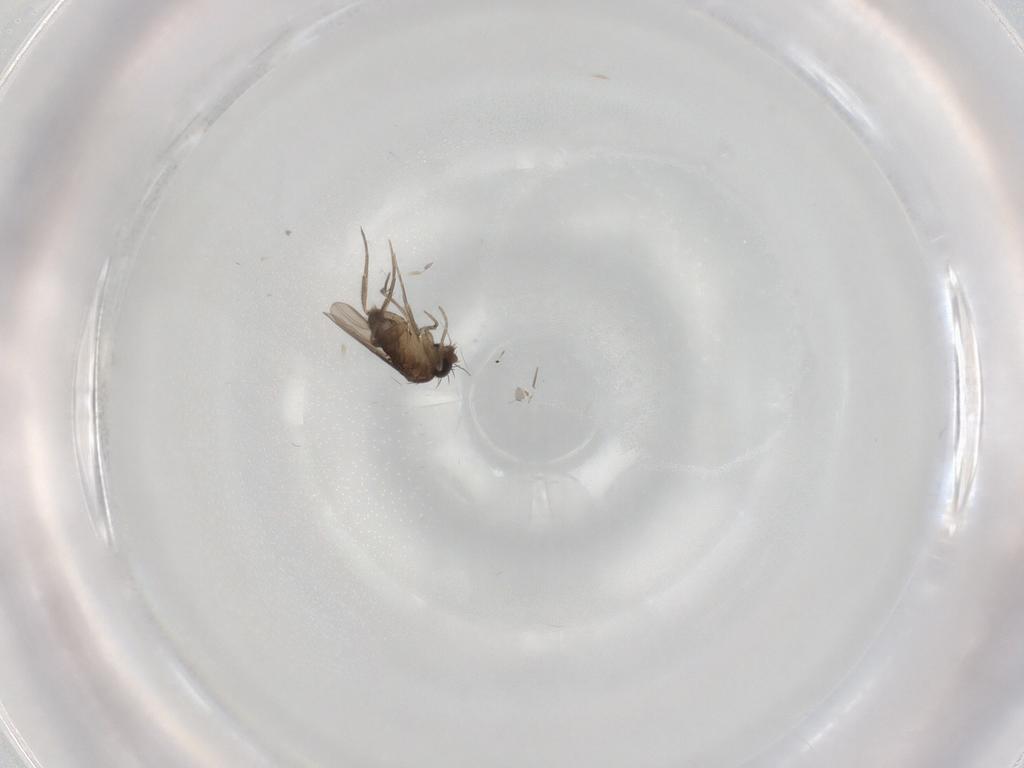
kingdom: Animalia
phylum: Arthropoda
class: Insecta
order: Diptera
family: Phoridae
